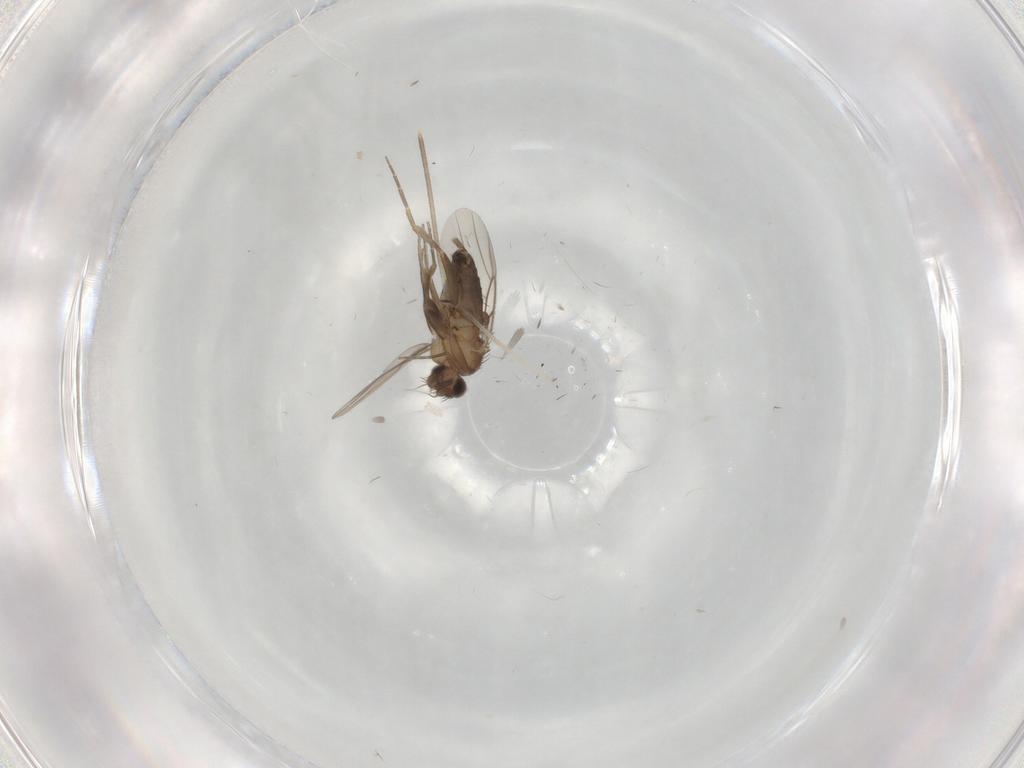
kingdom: Animalia
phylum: Arthropoda
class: Insecta
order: Diptera
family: Phoridae
